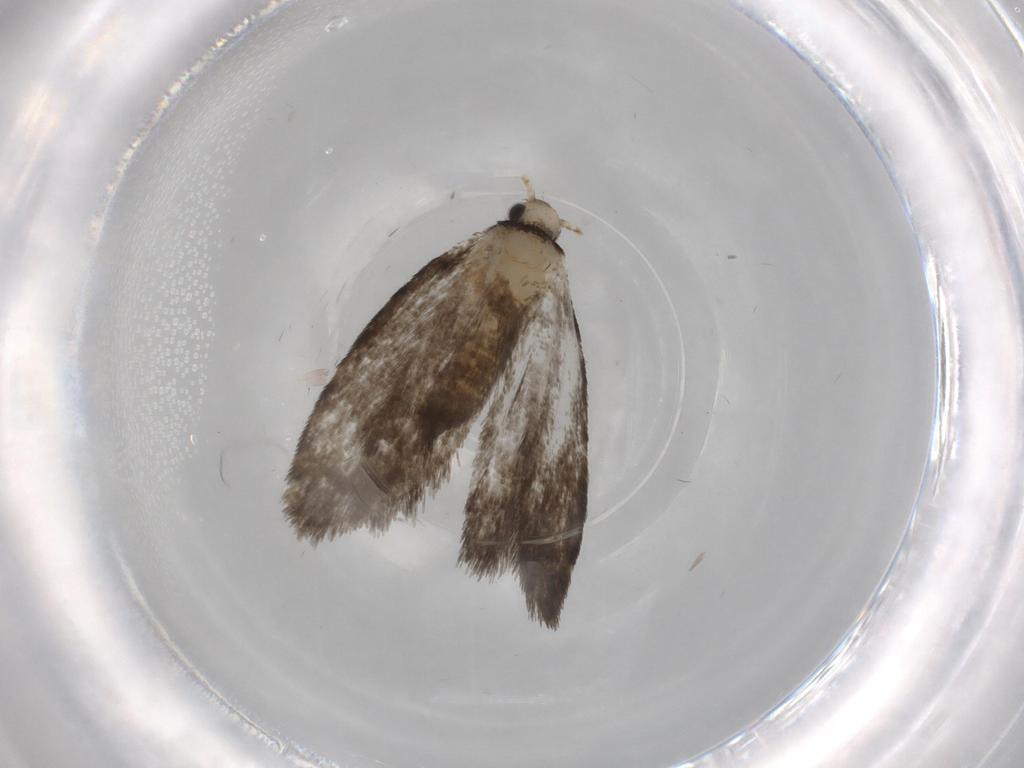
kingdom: Animalia
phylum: Arthropoda
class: Insecta
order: Lepidoptera
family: Psychidae
